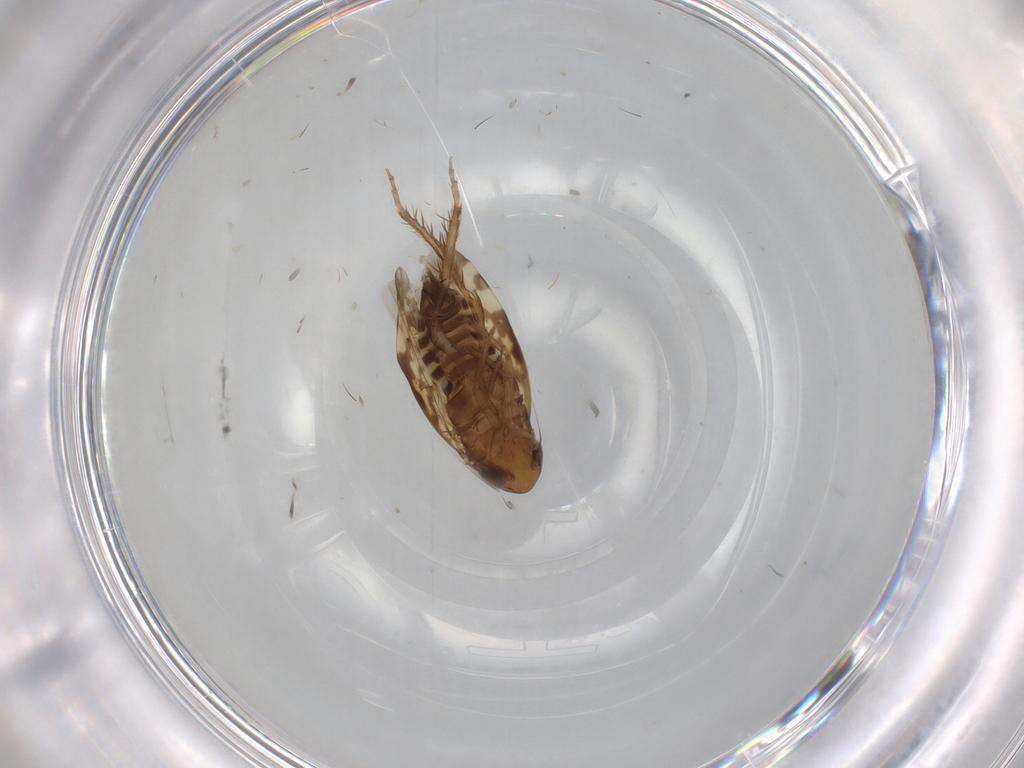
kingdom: Animalia
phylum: Arthropoda
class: Insecta
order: Hemiptera
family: Cicadellidae
